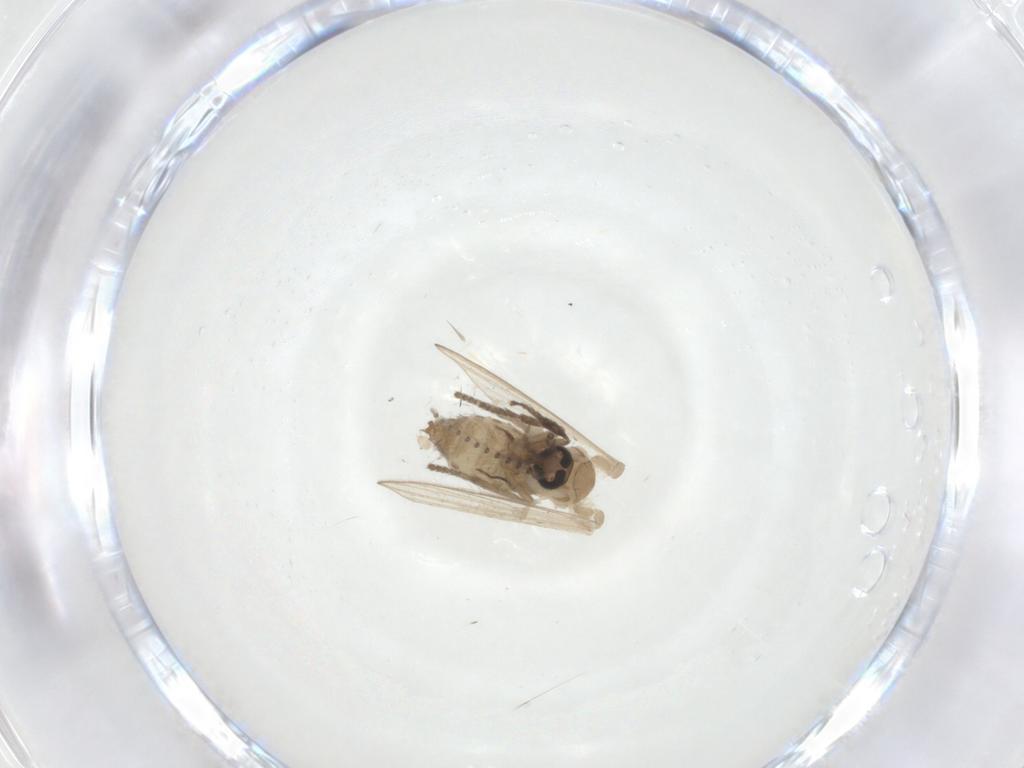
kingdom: Animalia
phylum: Arthropoda
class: Insecta
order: Diptera
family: Psychodidae
